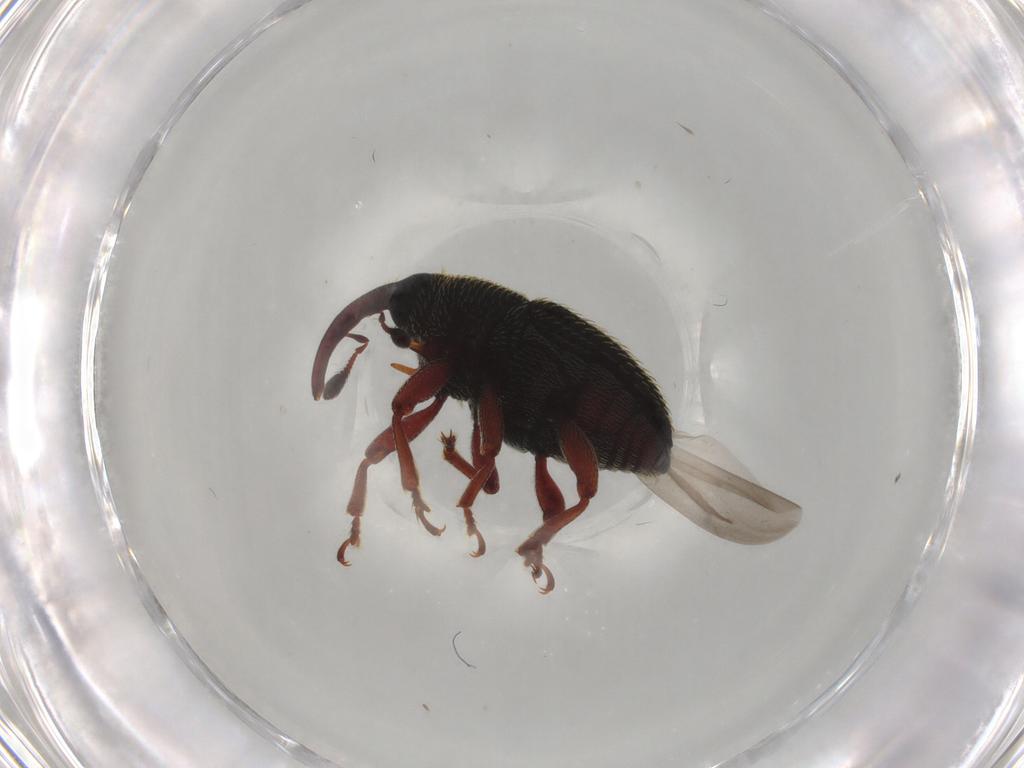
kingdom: Animalia
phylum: Arthropoda
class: Insecta
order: Coleoptera
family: Curculionidae
